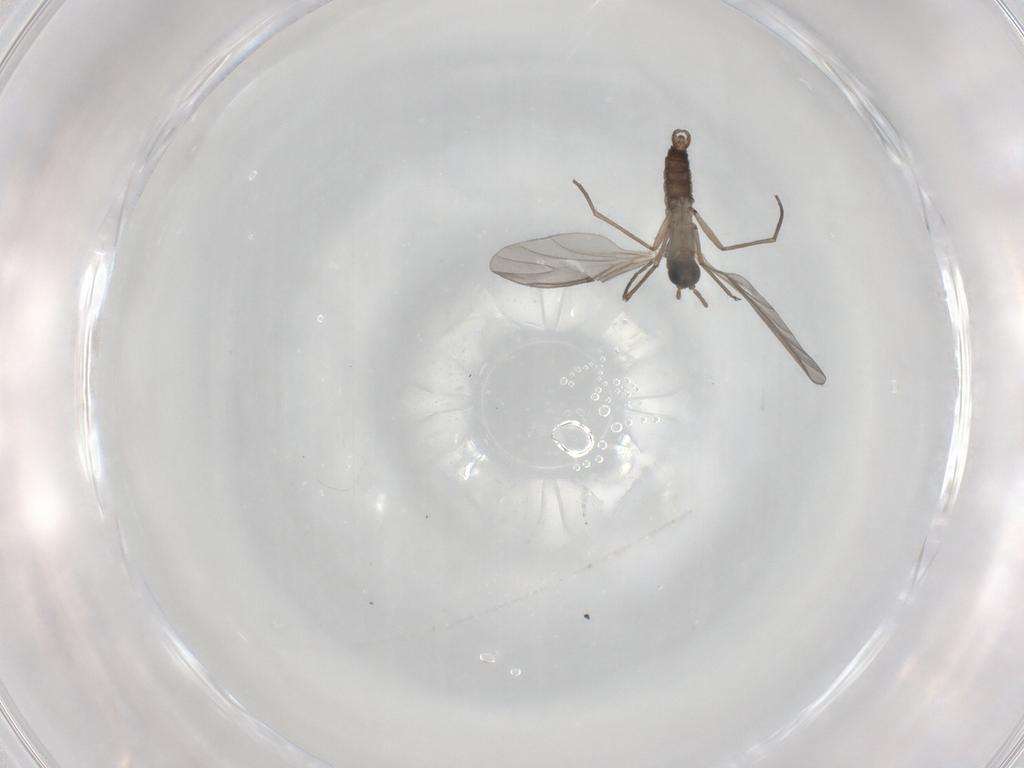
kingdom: Animalia
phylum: Arthropoda
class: Insecta
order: Diptera
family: Sciaridae
